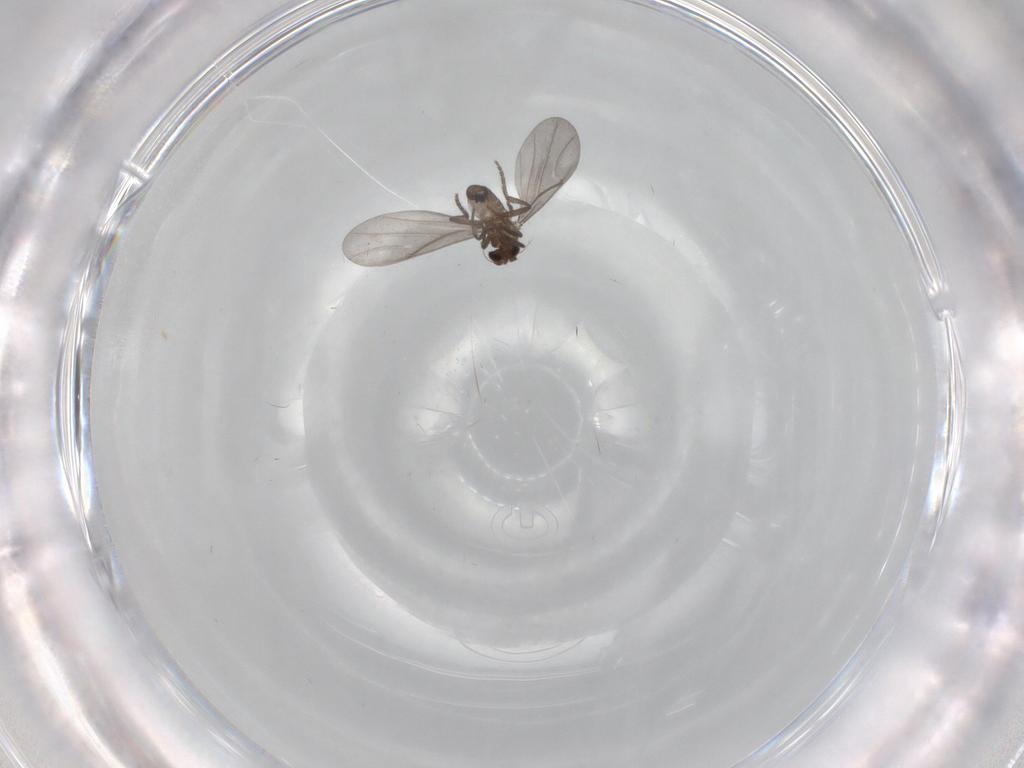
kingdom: Animalia
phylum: Arthropoda
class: Insecta
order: Diptera
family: Phoridae
